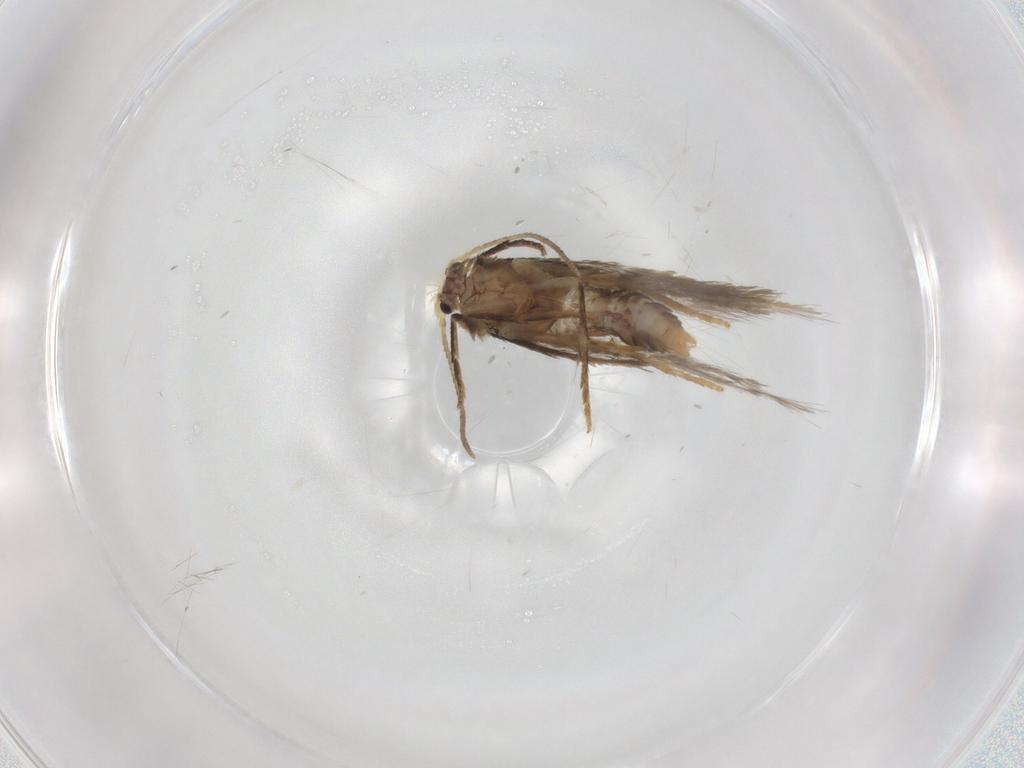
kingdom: Animalia
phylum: Arthropoda
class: Insecta
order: Lepidoptera
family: Nepticulidae
